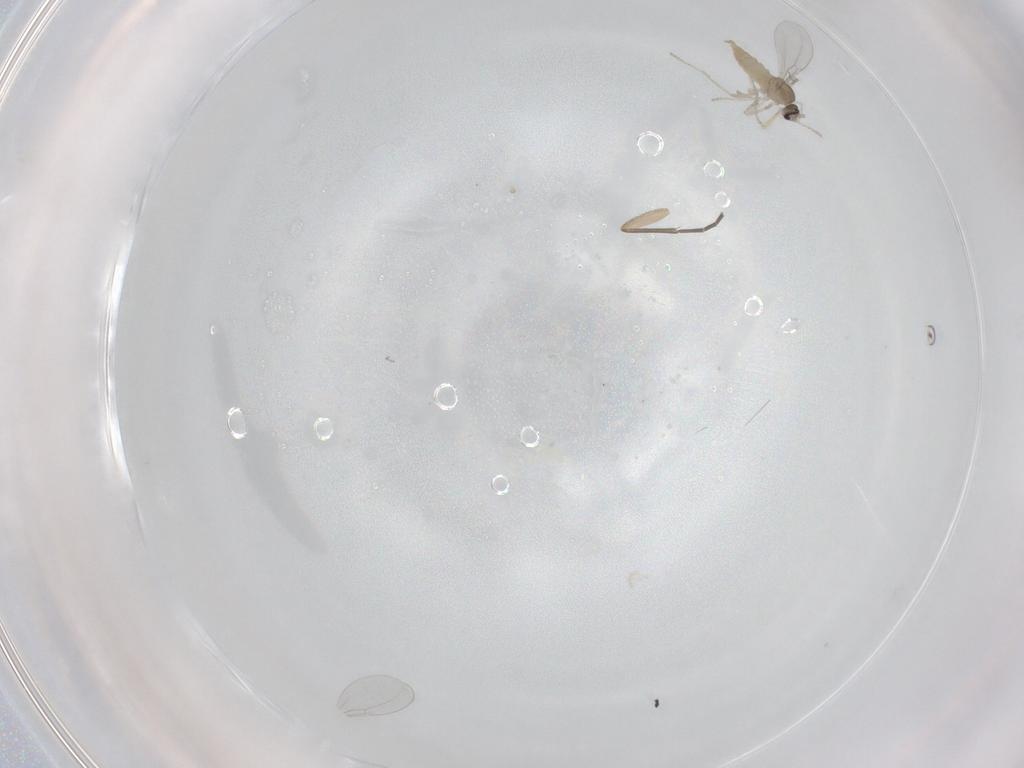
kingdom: Animalia
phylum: Arthropoda
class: Insecta
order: Diptera
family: Cecidomyiidae
